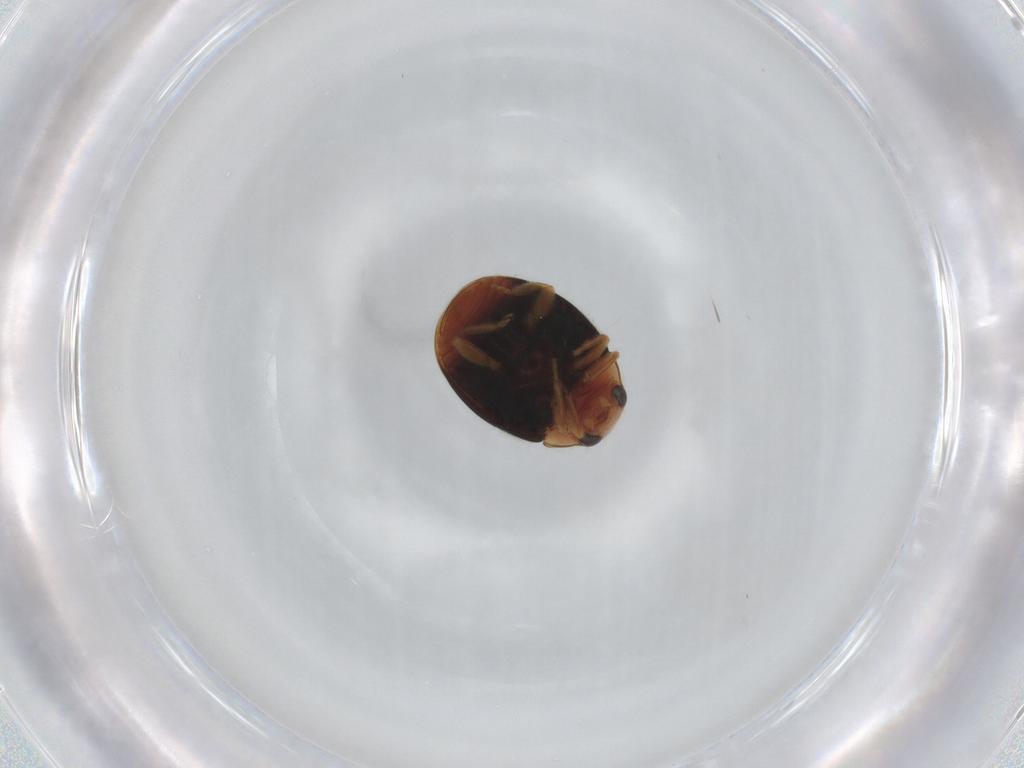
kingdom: Animalia
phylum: Arthropoda
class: Insecta
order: Coleoptera
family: Coccinellidae
